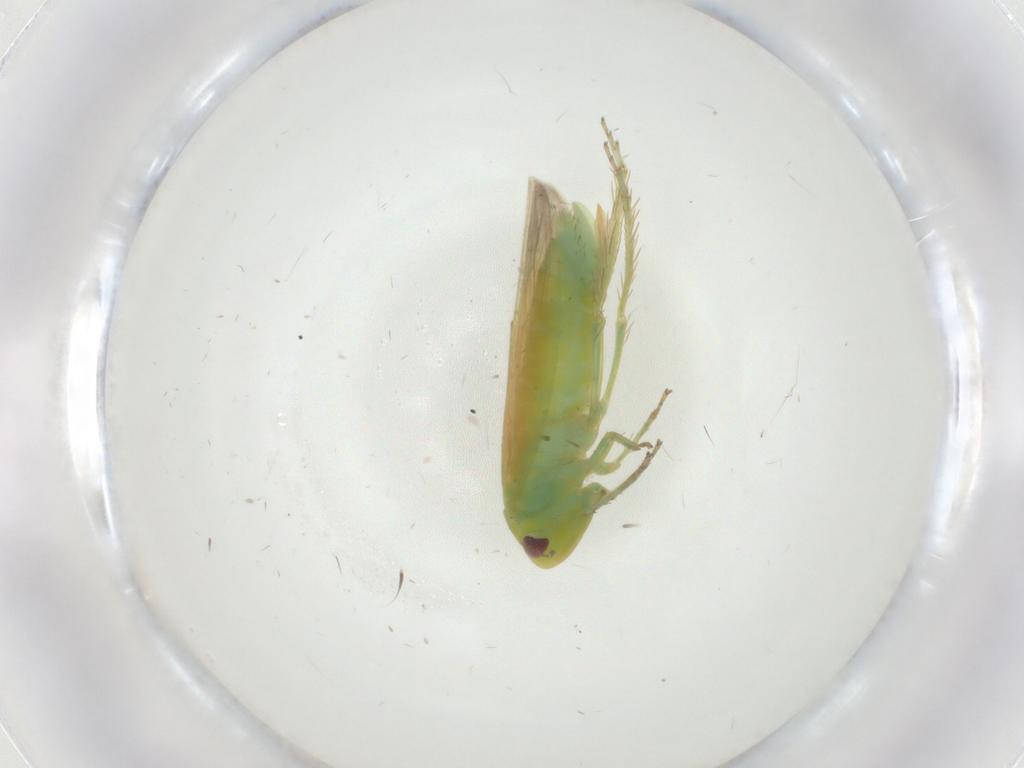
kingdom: Animalia
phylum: Arthropoda
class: Insecta
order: Hemiptera
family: Cicadellidae
